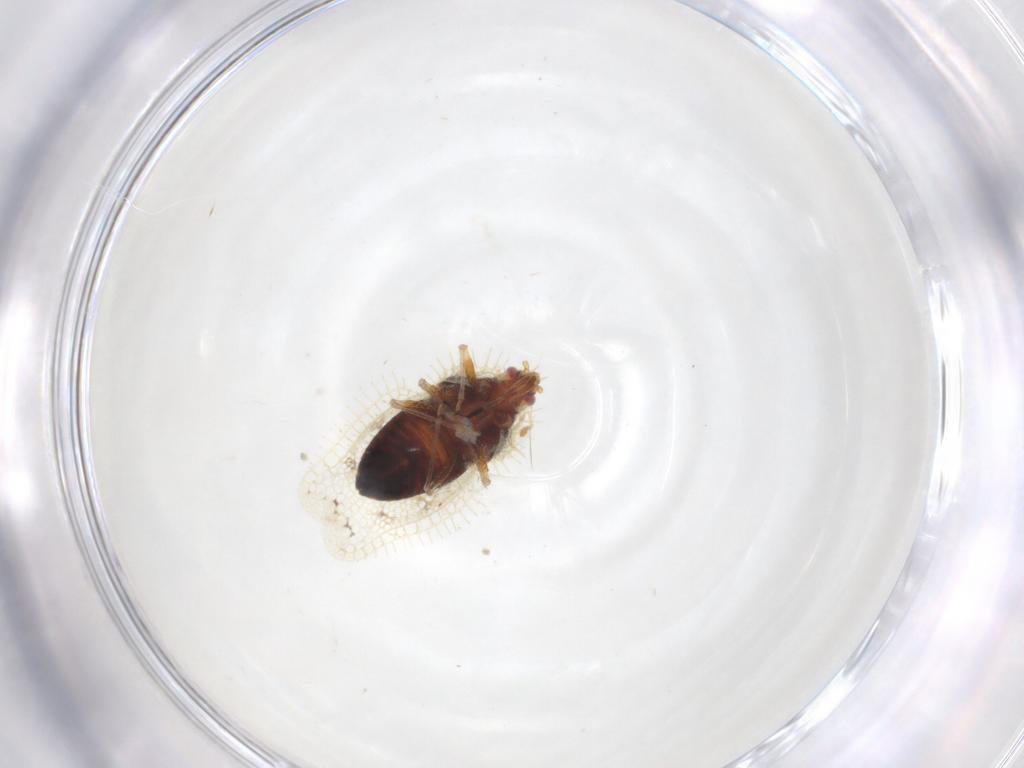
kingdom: Animalia
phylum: Arthropoda
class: Insecta
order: Hemiptera
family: Tingidae
